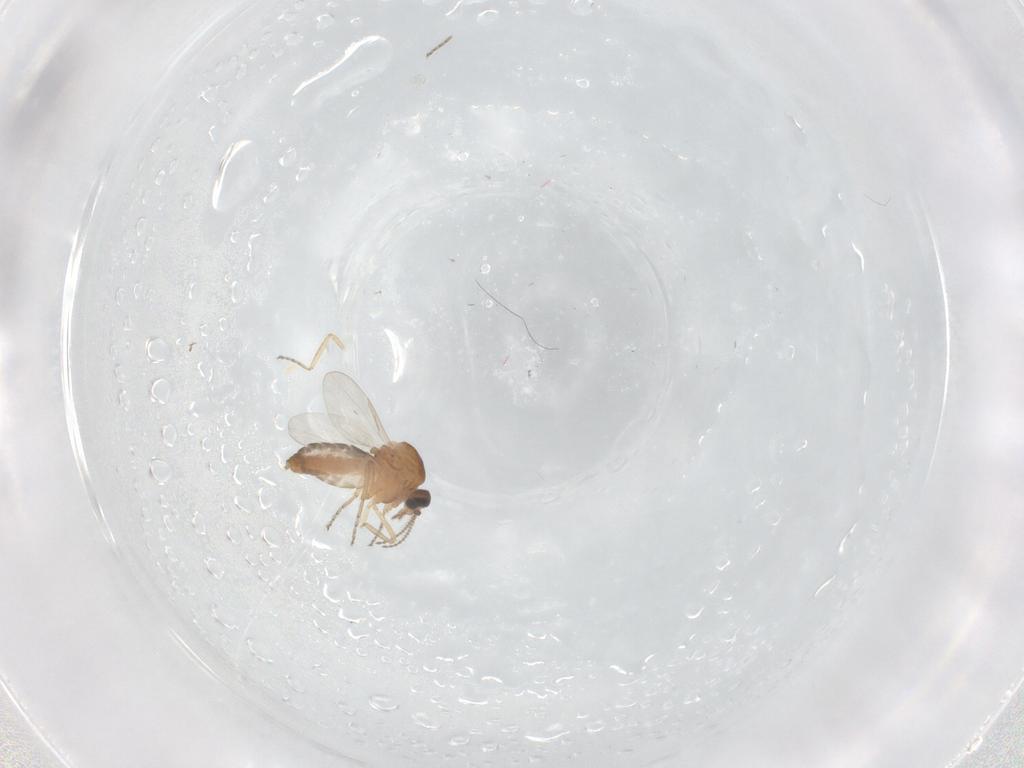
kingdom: Animalia
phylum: Arthropoda
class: Insecta
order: Diptera
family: Ceratopogonidae
